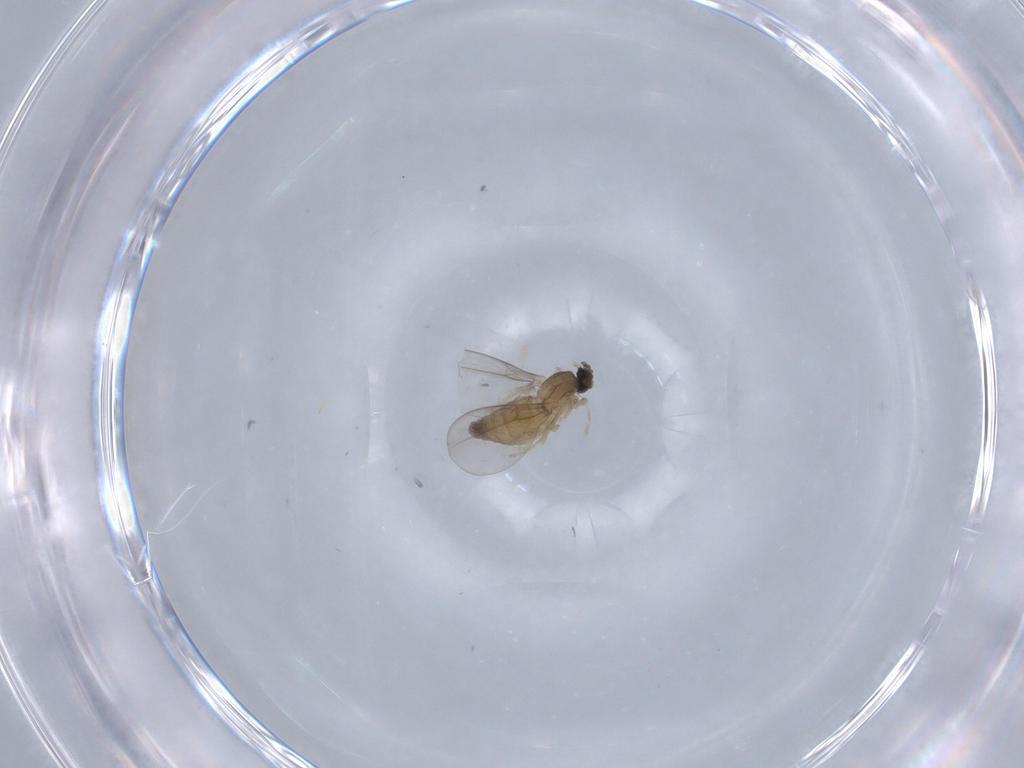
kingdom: Animalia
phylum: Arthropoda
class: Insecta
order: Diptera
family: Cecidomyiidae
